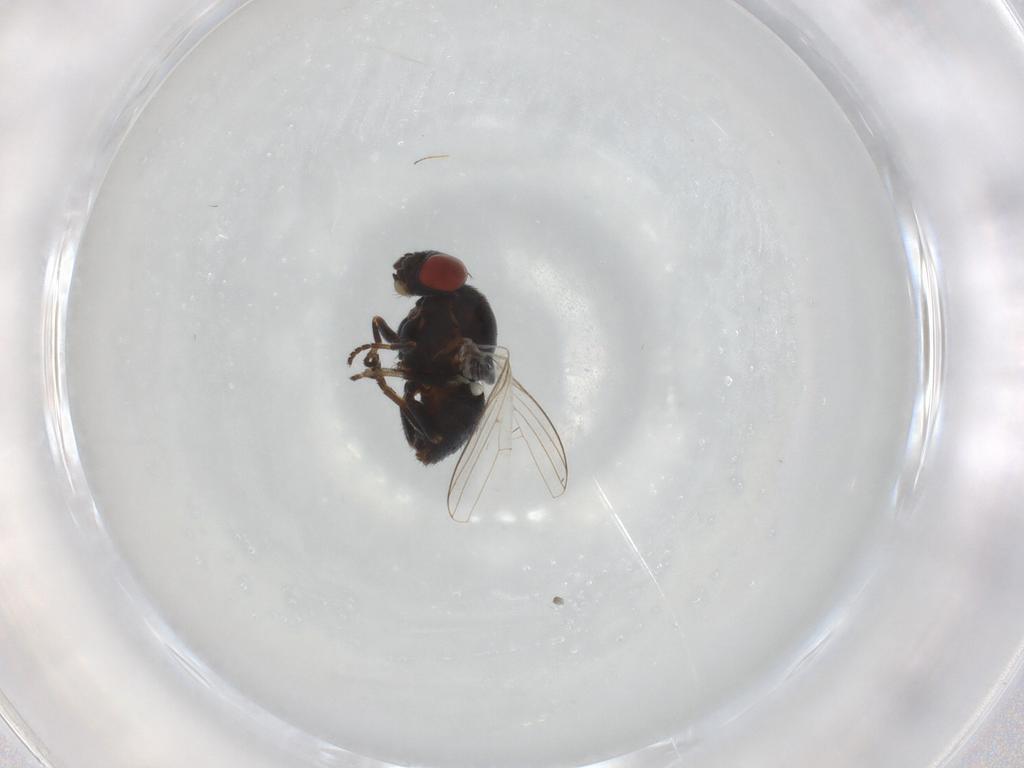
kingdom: Animalia
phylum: Arthropoda
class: Insecta
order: Diptera
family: Chamaemyiidae
